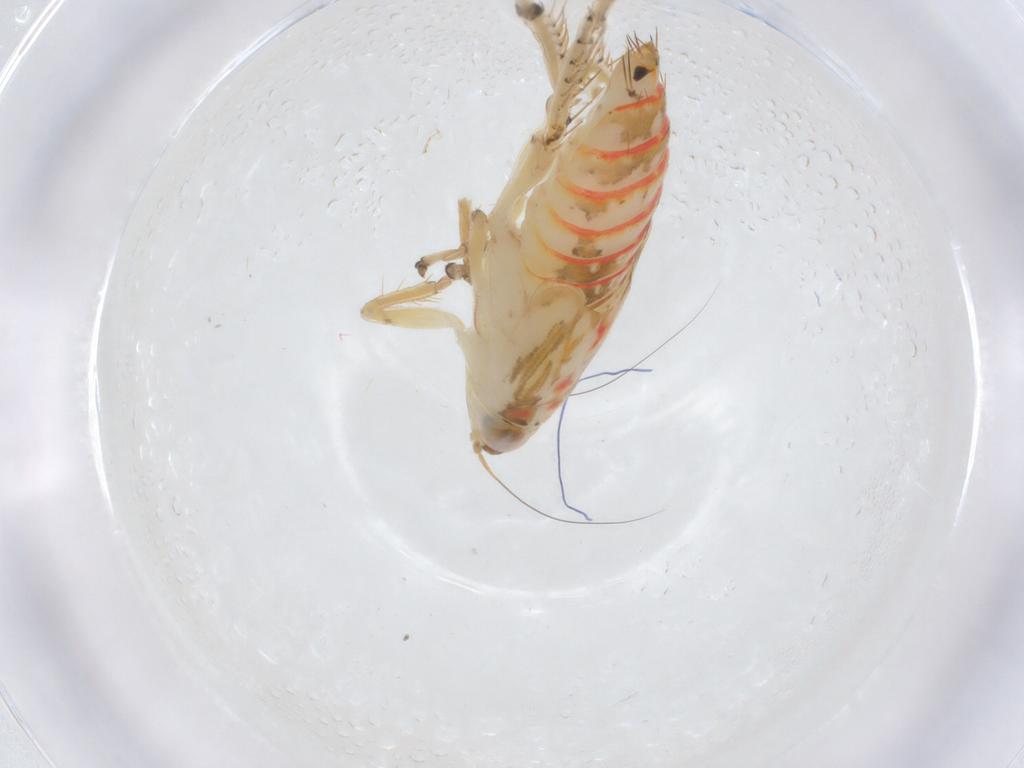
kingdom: Animalia
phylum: Arthropoda
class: Insecta
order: Hemiptera
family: Cicadellidae
